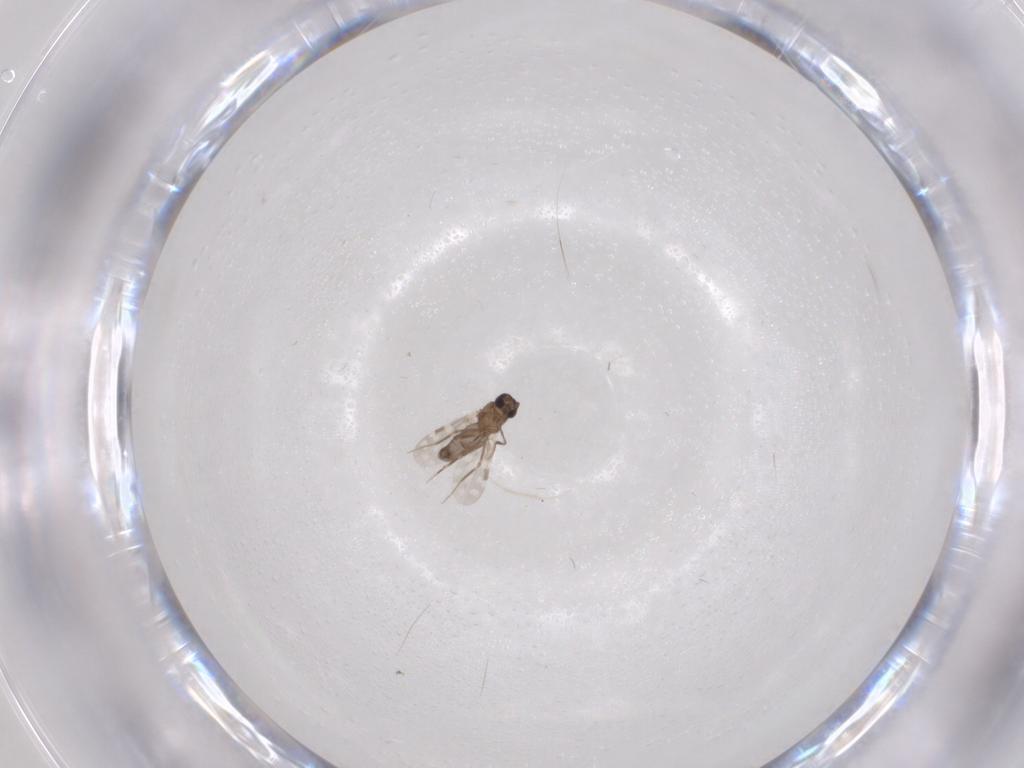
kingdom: Animalia
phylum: Arthropoda
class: Insecta
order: Diptera
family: Ceratopogonidae
